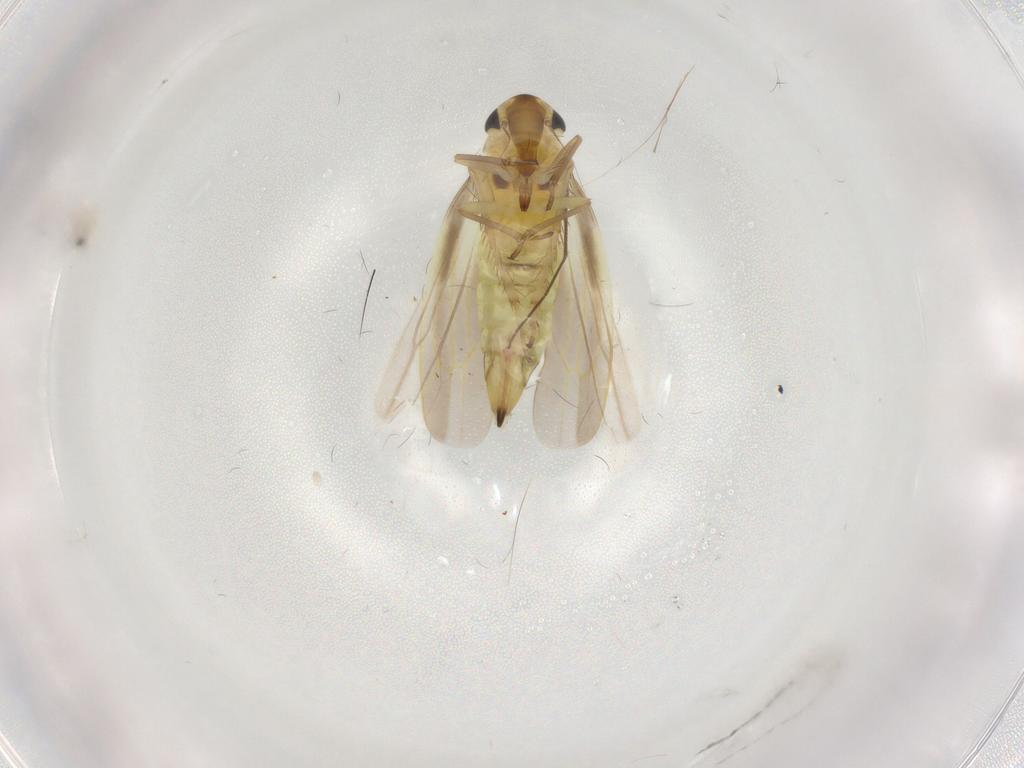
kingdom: Animalia
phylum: Arthropoda
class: Insecta
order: Hemiptera
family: Cicadellidae
